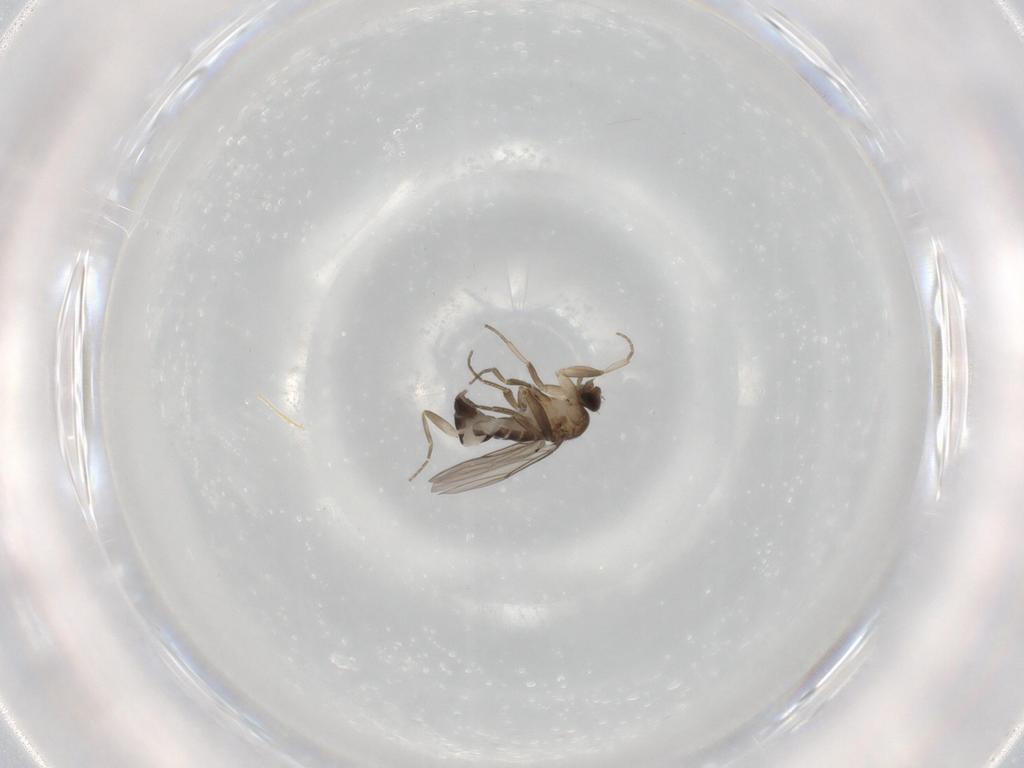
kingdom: Animalia
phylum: Arthropoda
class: Insecta
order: Diptera
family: Phoridae
